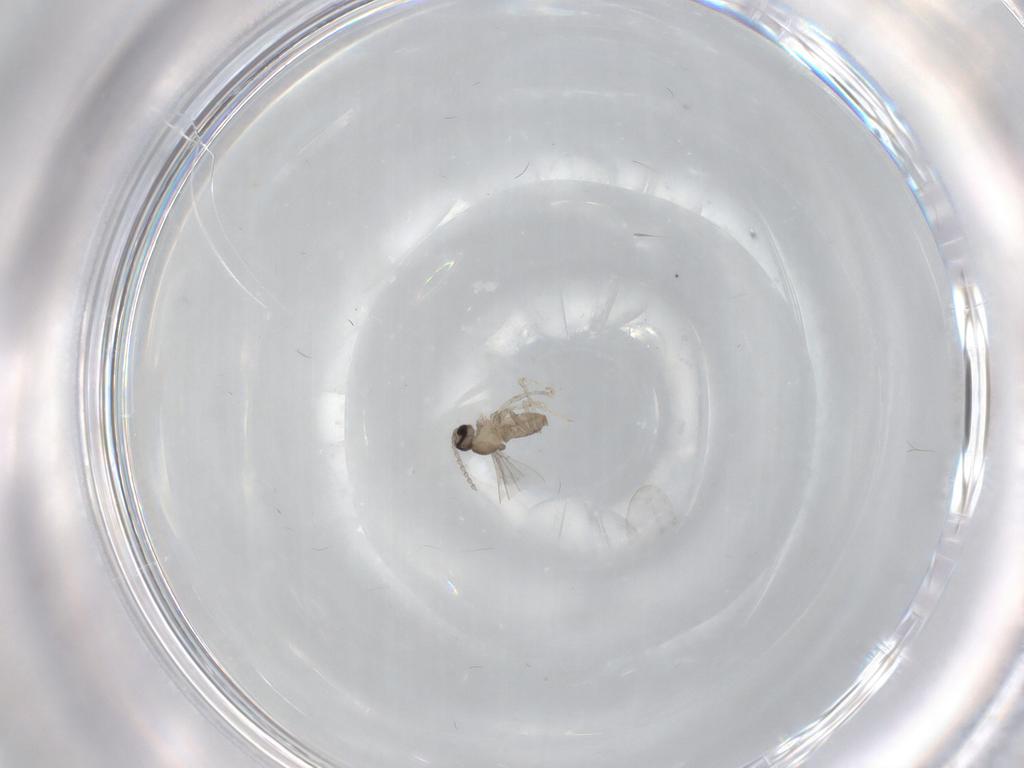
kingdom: Animalia
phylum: Arthropoda
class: Insecta
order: Diptera
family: Cecidomyiidae
